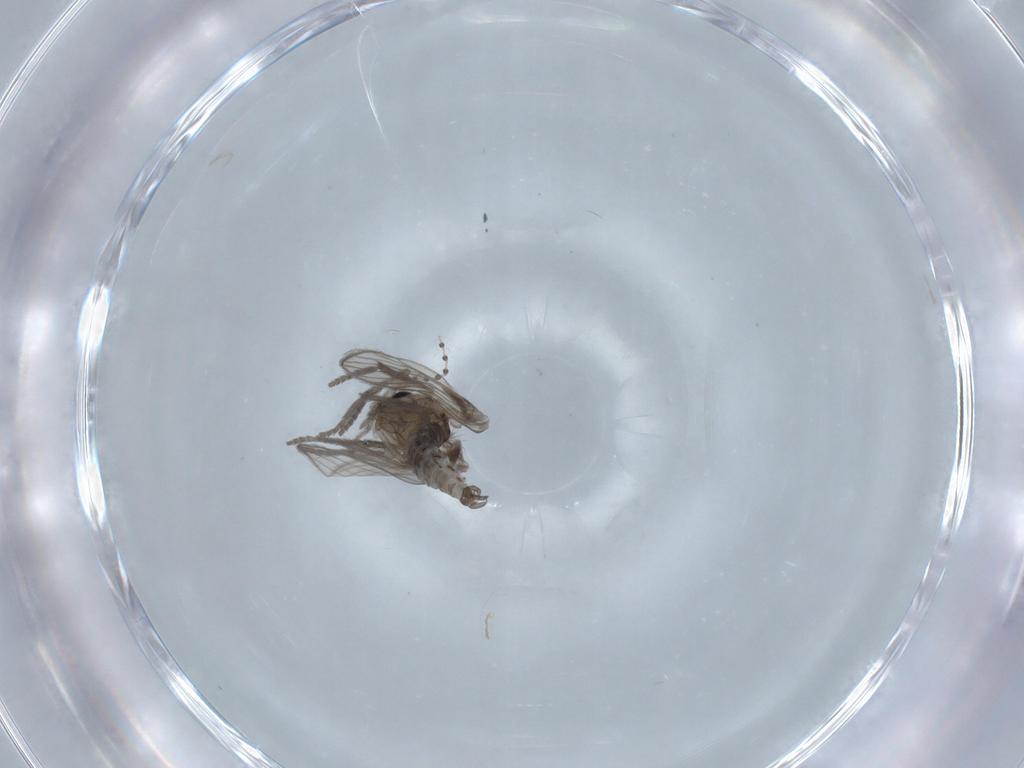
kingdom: Animalia
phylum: Arthropoda
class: Insecta
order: Diptera
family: Psychodidae
